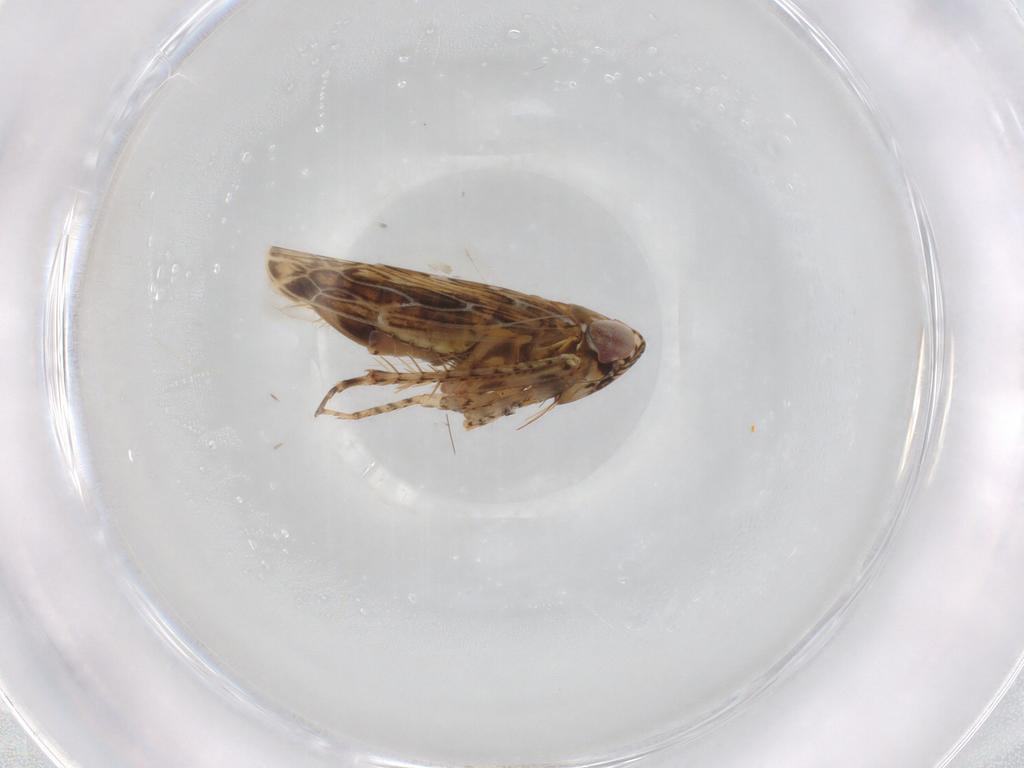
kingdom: Animalia
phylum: Arthropoda
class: Insecta
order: Hemiptera
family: Cicadellidae
